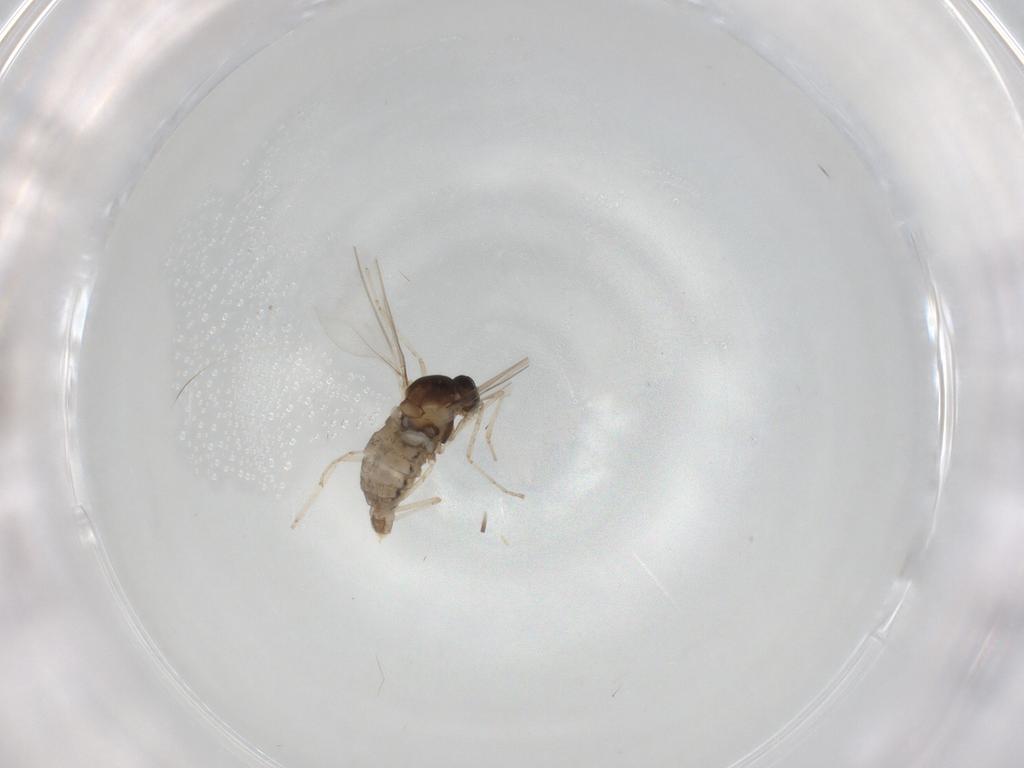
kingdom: Animalia
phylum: Arthropoda
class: Insecta
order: Diptera
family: Cecidomyiidae
